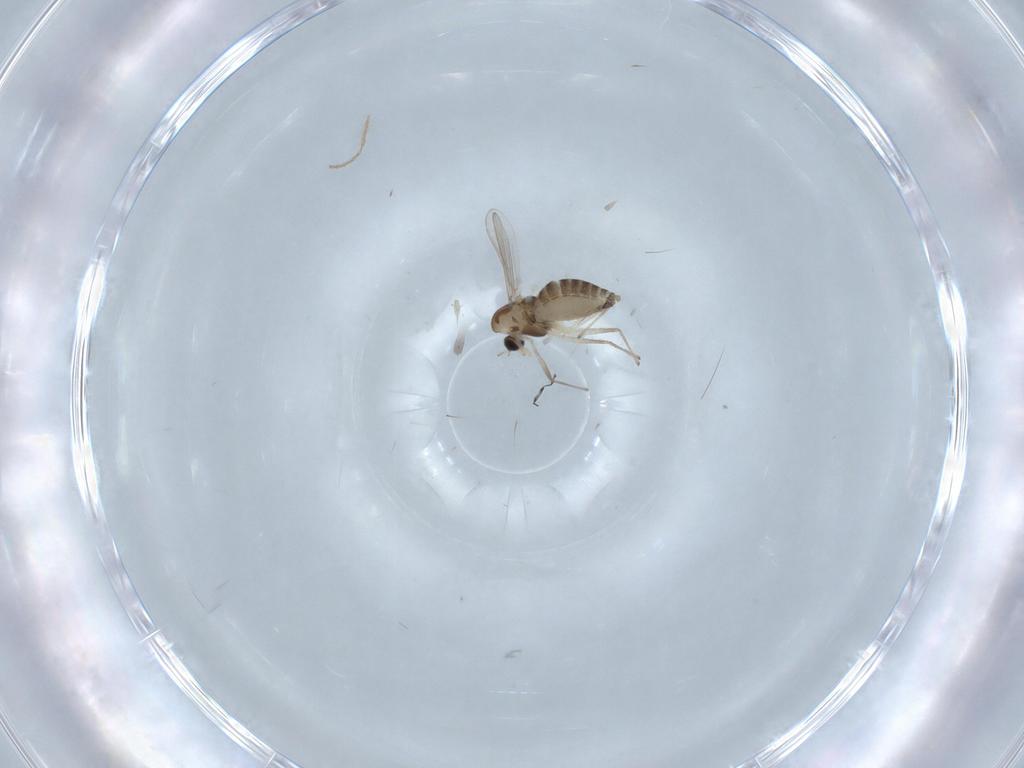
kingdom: Animalia
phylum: Arthropoda
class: Insecta
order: Diptera
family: Cecidomyiidae
